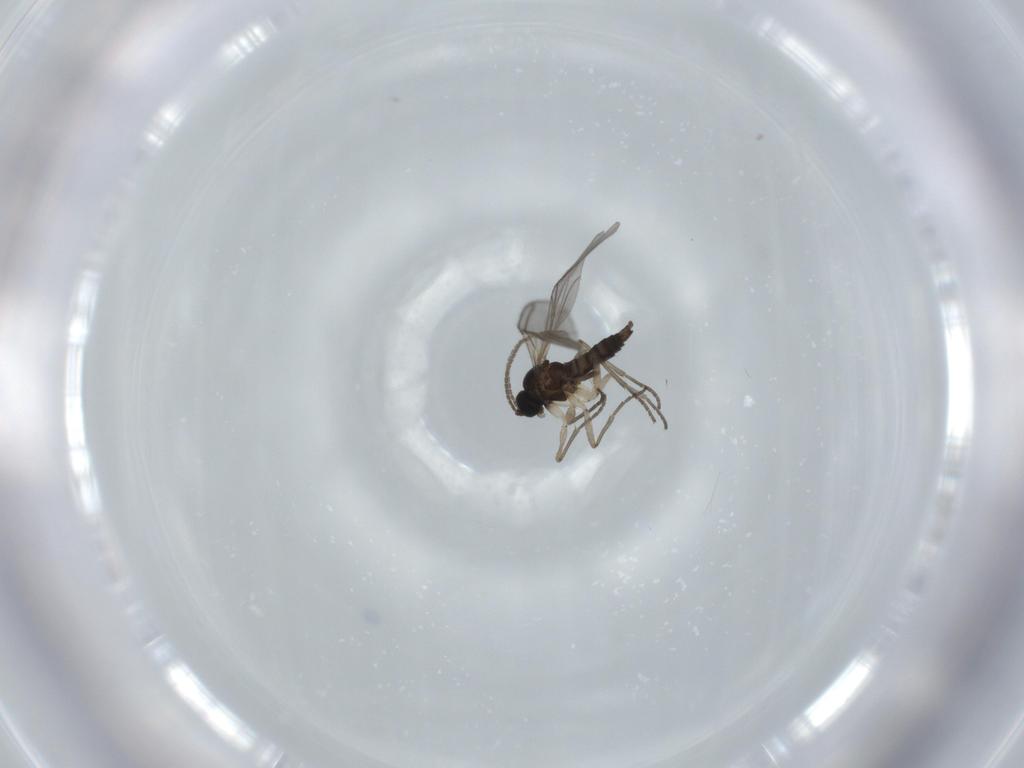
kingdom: Animalia
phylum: Arthropoda
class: Insecta
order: Diptera
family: Sciaridae
